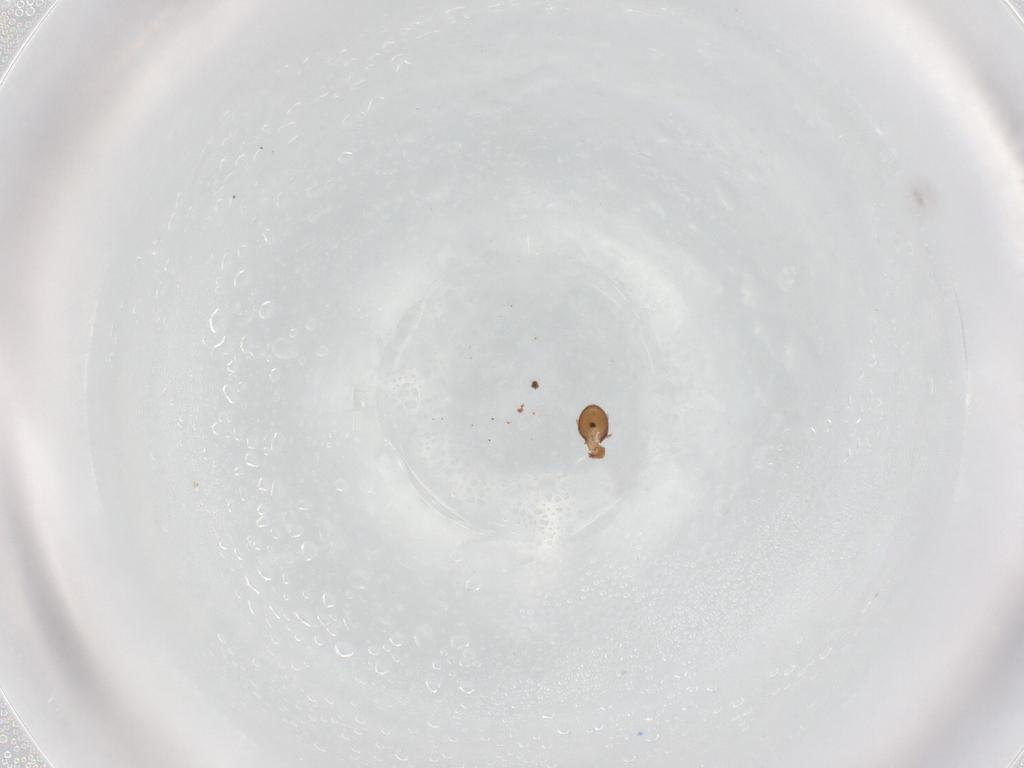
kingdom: Animalia
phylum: Arthropoda
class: Arachnida
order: Sarcoptiformes
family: Oribatulidae
